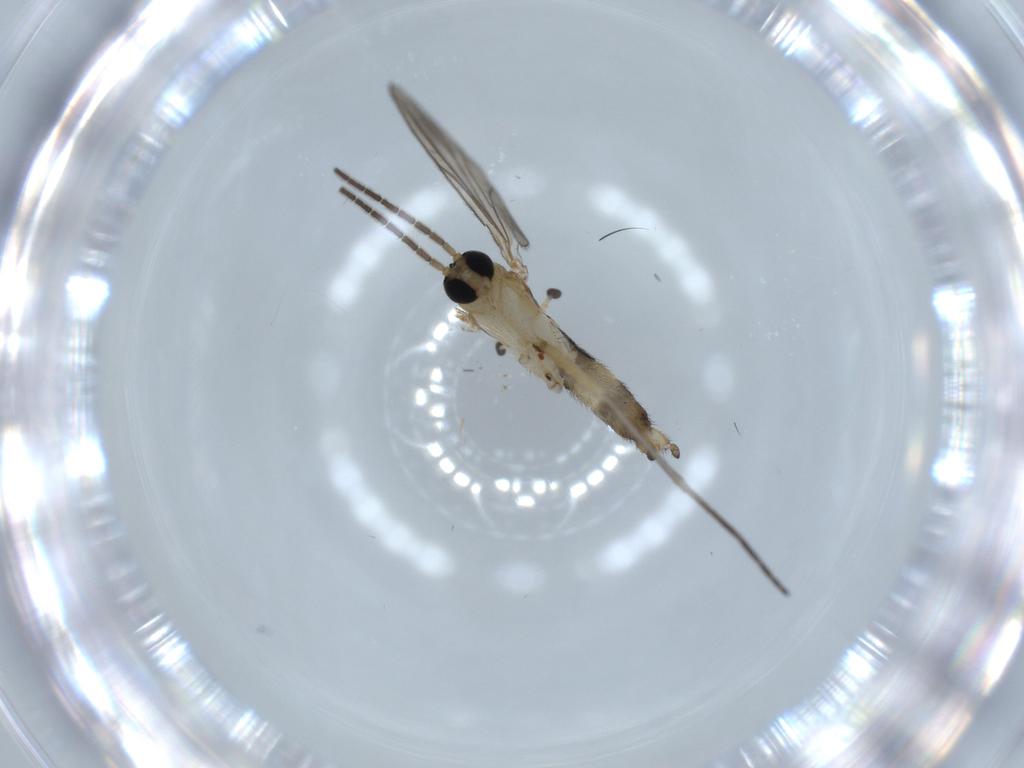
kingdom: Animalia
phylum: Arthropoda
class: Insecta
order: Diptera
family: Sciaridae
